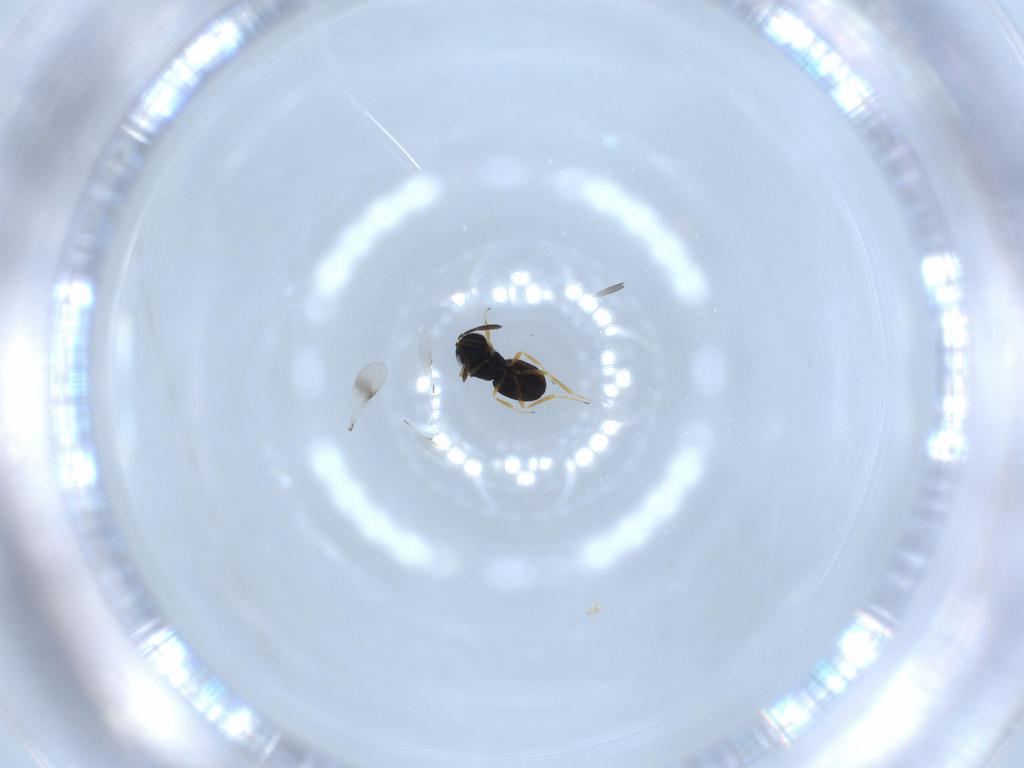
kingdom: Animalia
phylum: Arthropoda
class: Insecta
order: Hymenoptera
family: Scelionidae
